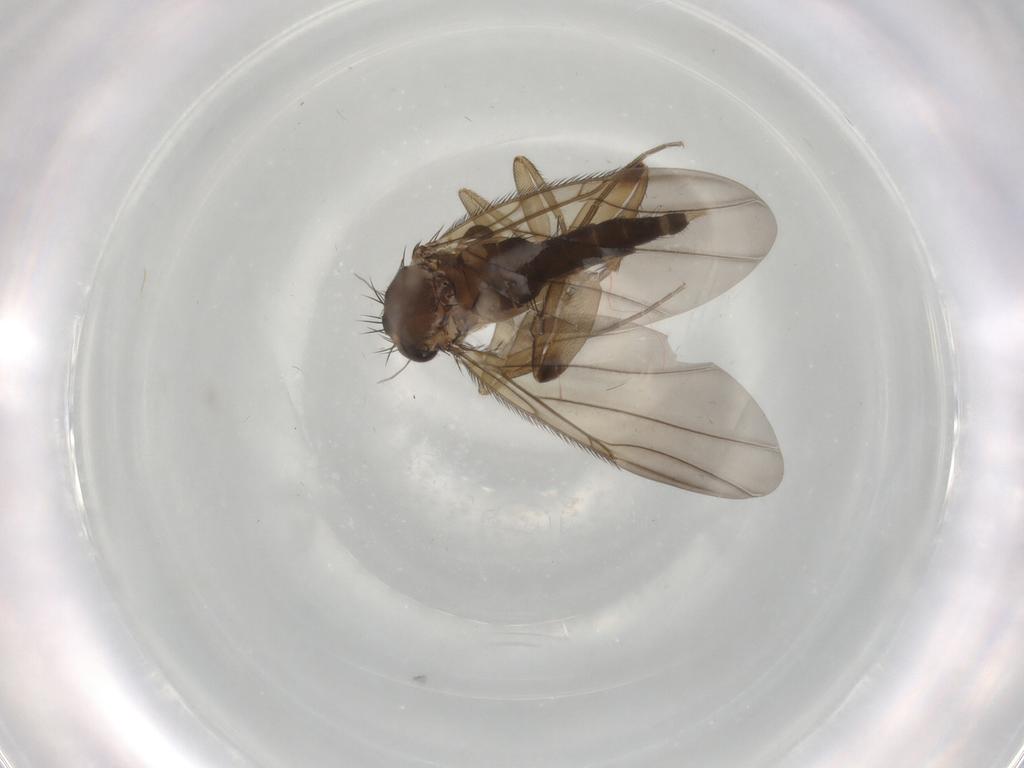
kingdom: Animalia
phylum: Arthropoda
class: Insecta
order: Diptera
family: Phoridae
